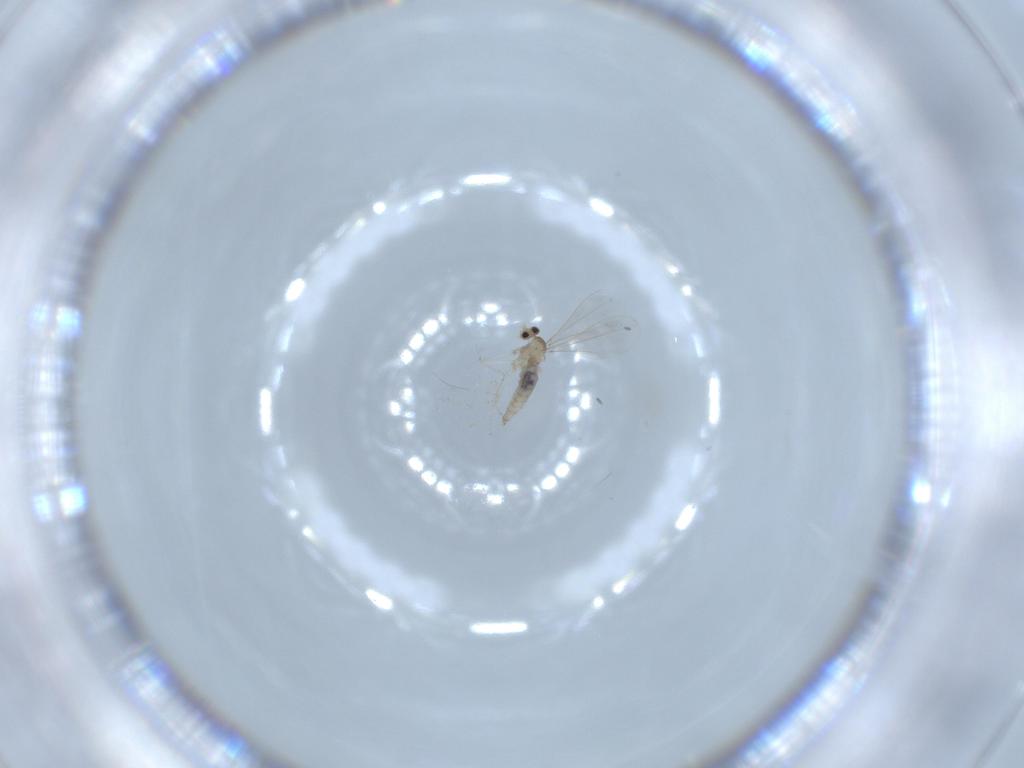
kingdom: Animalia
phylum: Arthropoda
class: Insecta
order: Diptera
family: Cecidomyiidae
